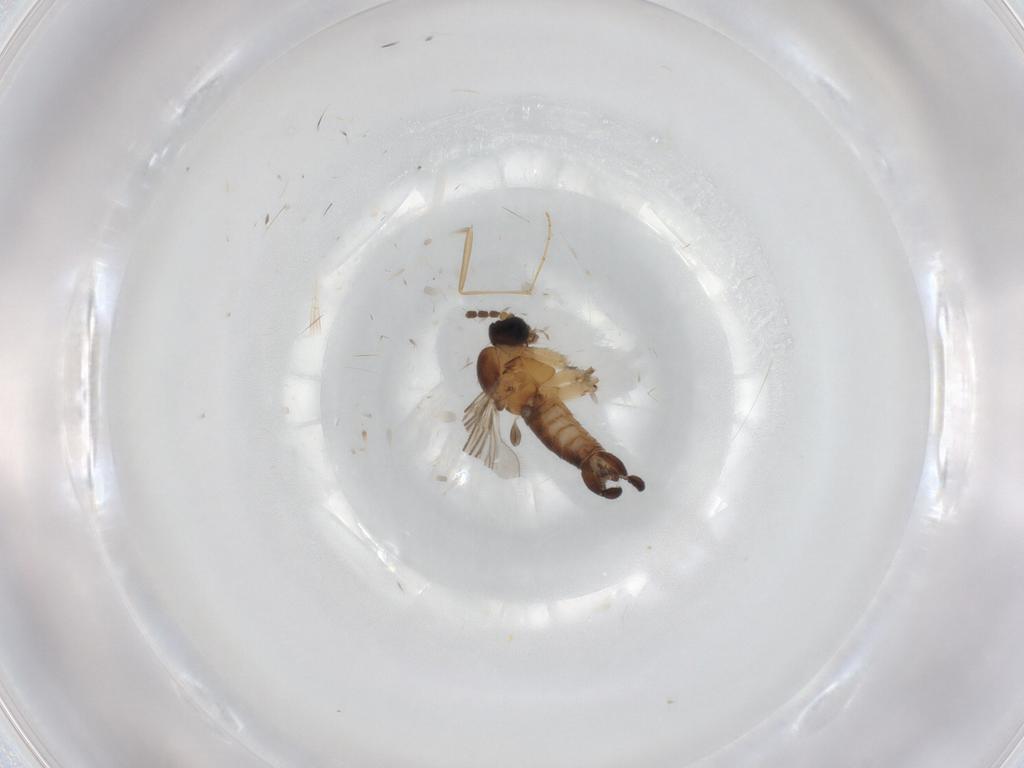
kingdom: Animalia
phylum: Arthropoda
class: Insecta
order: Diptera
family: Sciaridae
